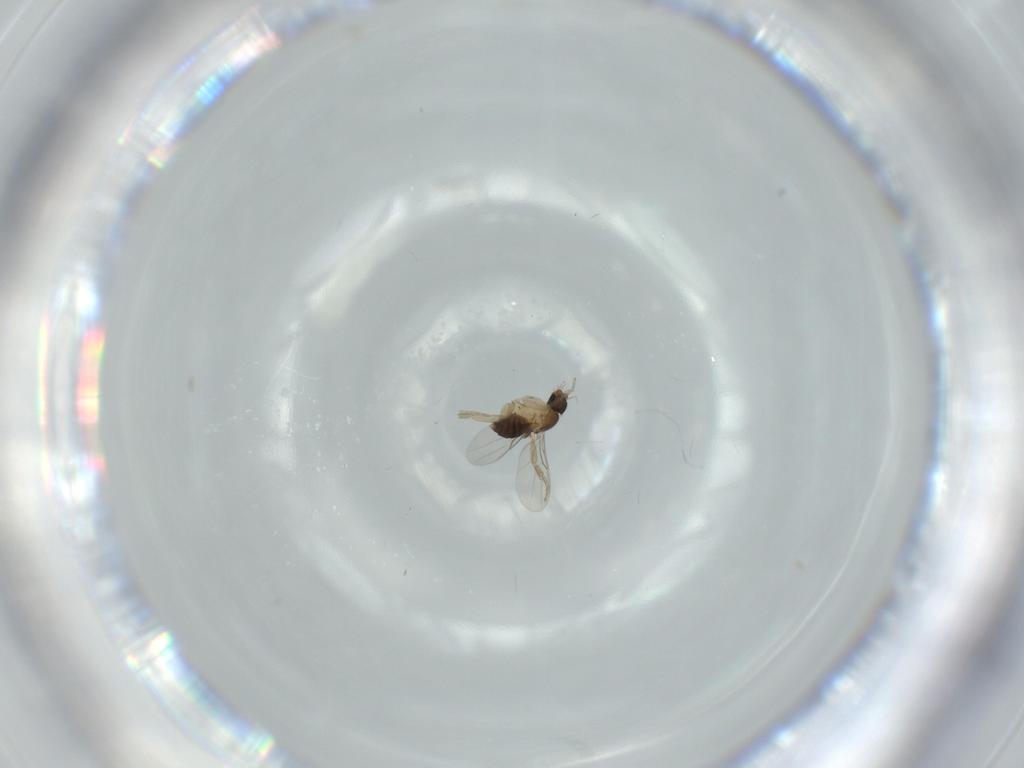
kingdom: Animalia
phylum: Arthropoda
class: Insecta
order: Diptera
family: Phoridae
